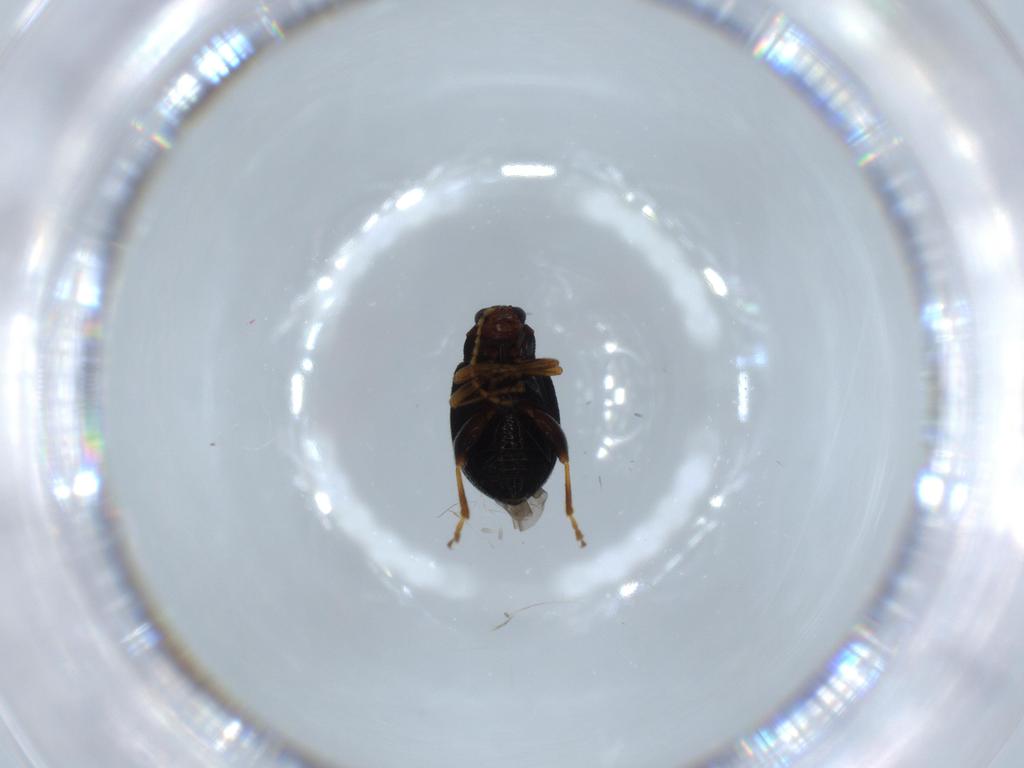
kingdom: Animalia
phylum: Arthropoda
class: Insecta
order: Coleoptera
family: Chrysomelidae
